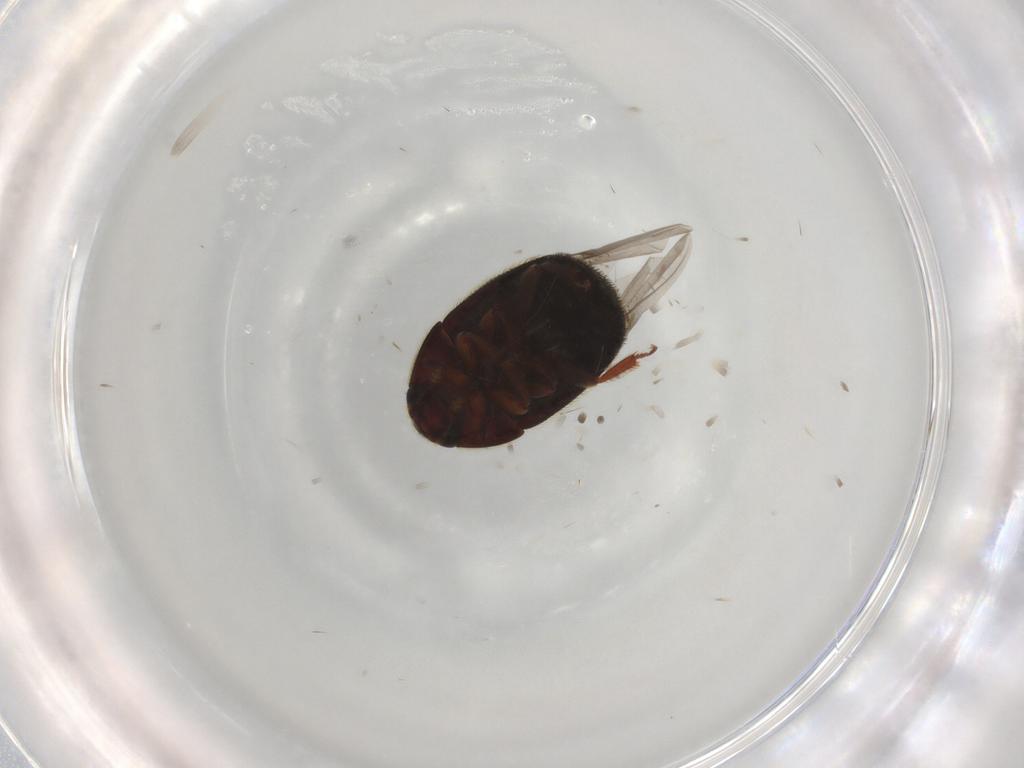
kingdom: Animalia
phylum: Arthropoda
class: Insecta
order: Coleoptera
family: Nitidulidae
